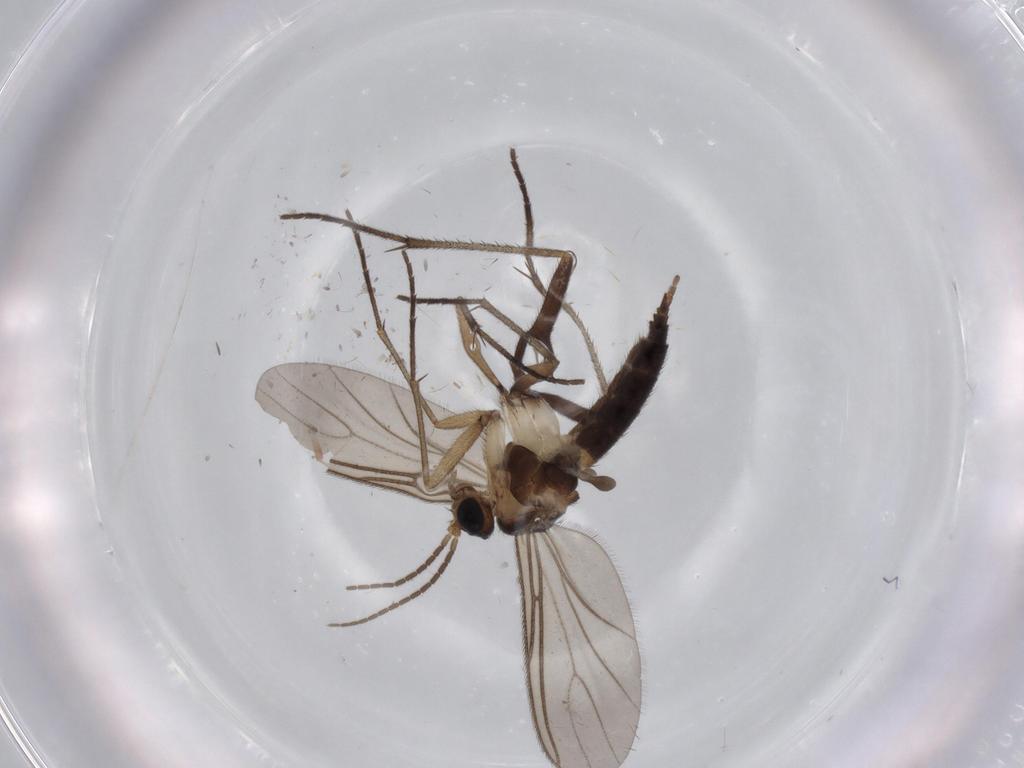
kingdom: Animalia
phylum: Arthropoda
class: Insecta
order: Diptera
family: Sciaridae
